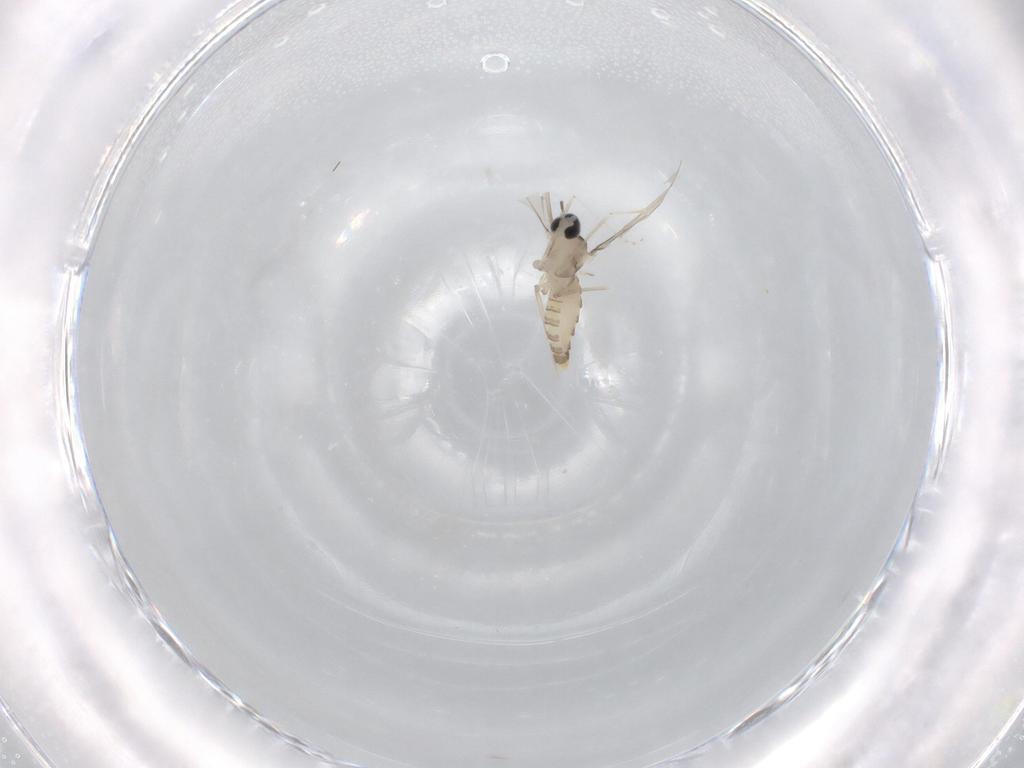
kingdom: Animalia
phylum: Arthropoda
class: Insecta
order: Diptera
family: Cecidomyiidae
